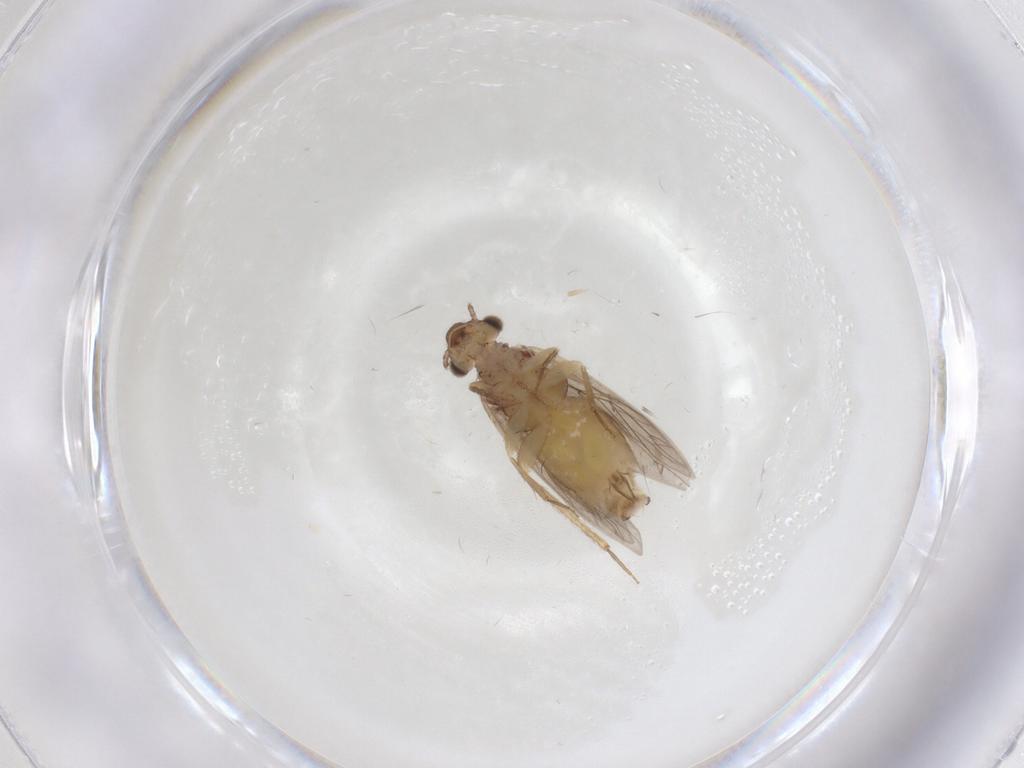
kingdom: Animalia
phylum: Arthropoda
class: Insecta
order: Psocodea
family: Lepidopsocidae
